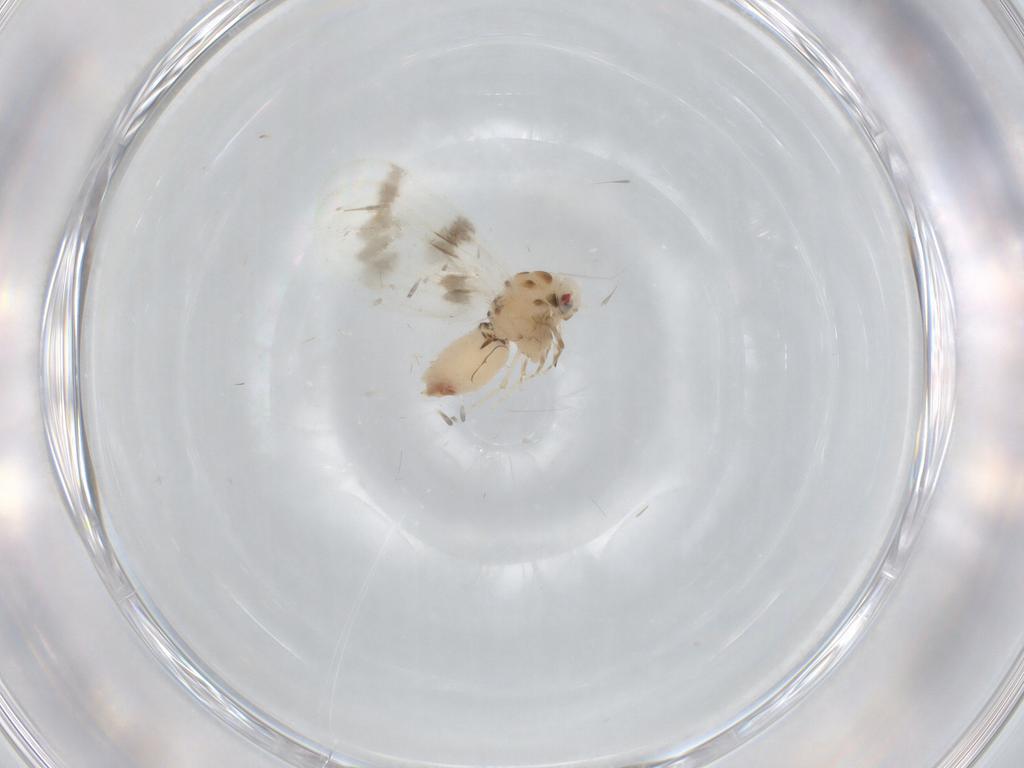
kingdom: Animalia
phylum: Arthropoda
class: Insecta
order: Hemiptera
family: Aleyrodidae
